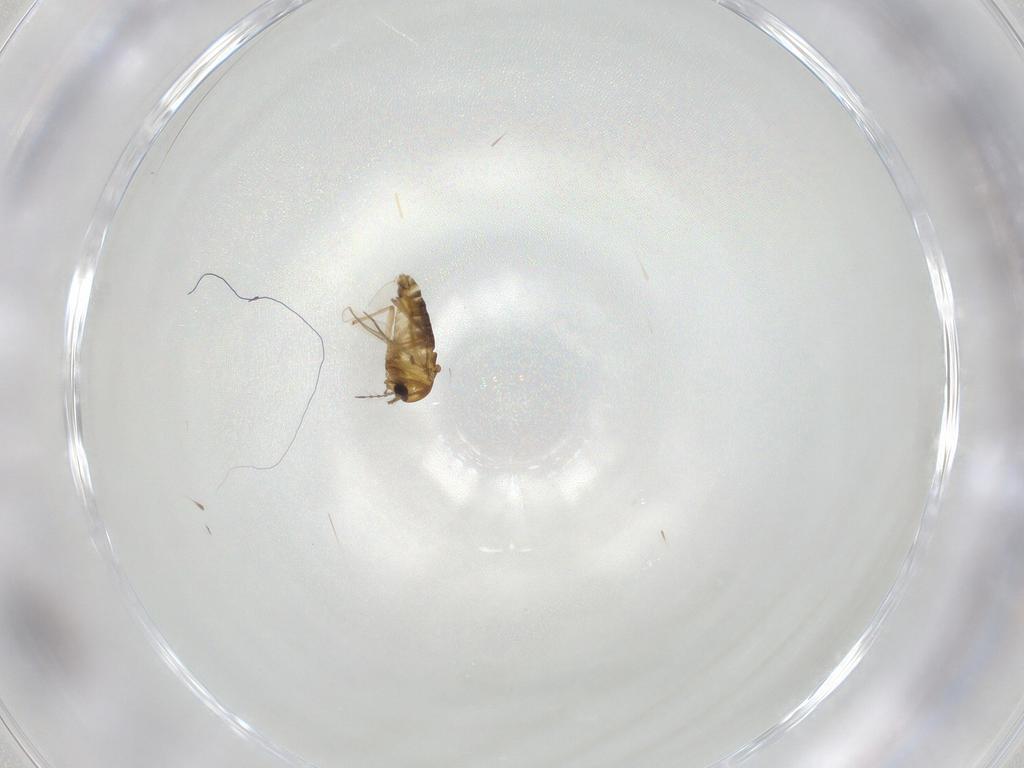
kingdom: Animalia
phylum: Arthropoda
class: Insecta
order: Diptera
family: Chironomidae
